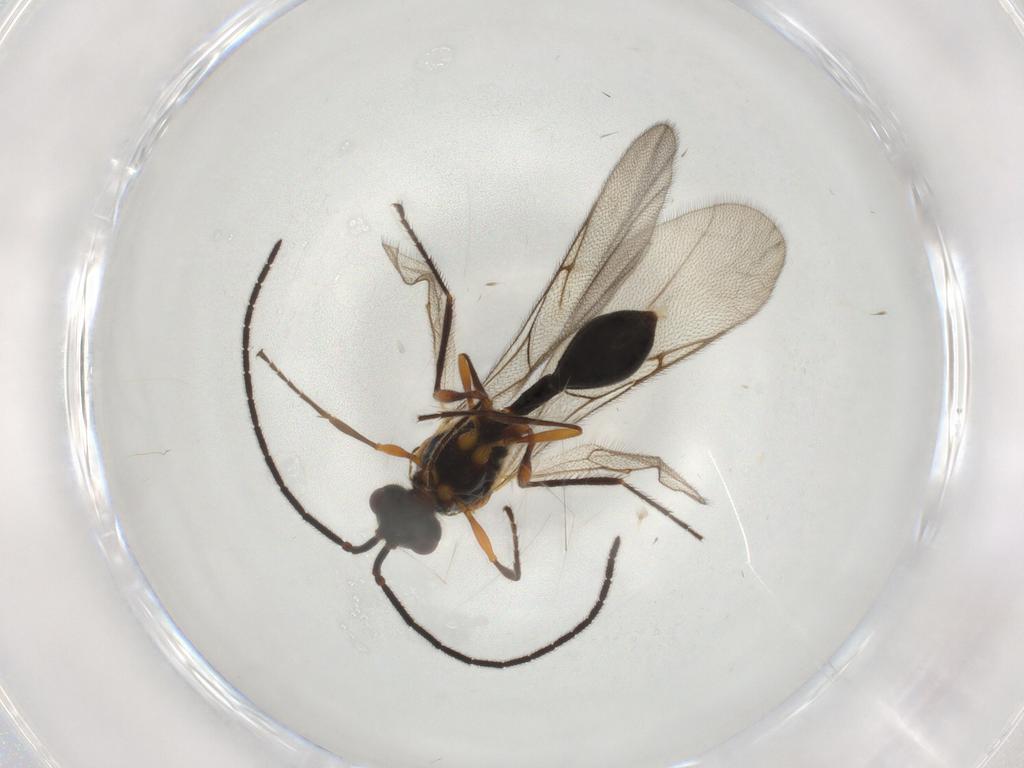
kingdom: Animalia
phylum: Arthropoda
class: Insecta
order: Hymenoptera
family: Diapriidae
